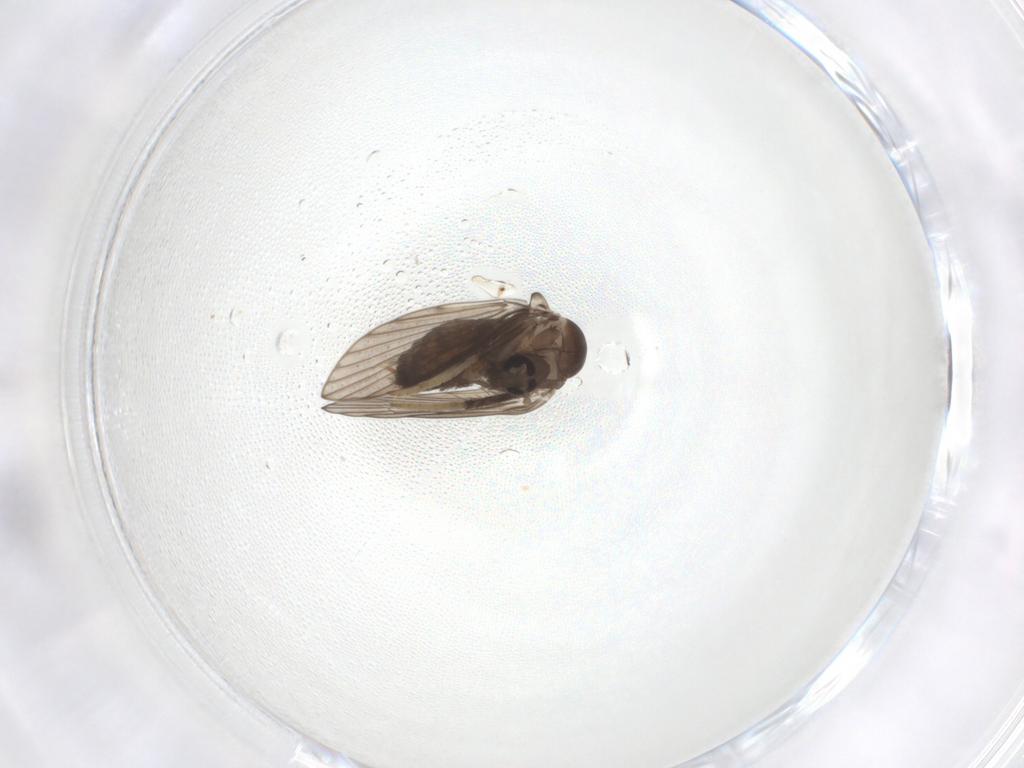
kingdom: Animalia
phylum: Arthropoda
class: Insecta
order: Diptera
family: Psychodidae
